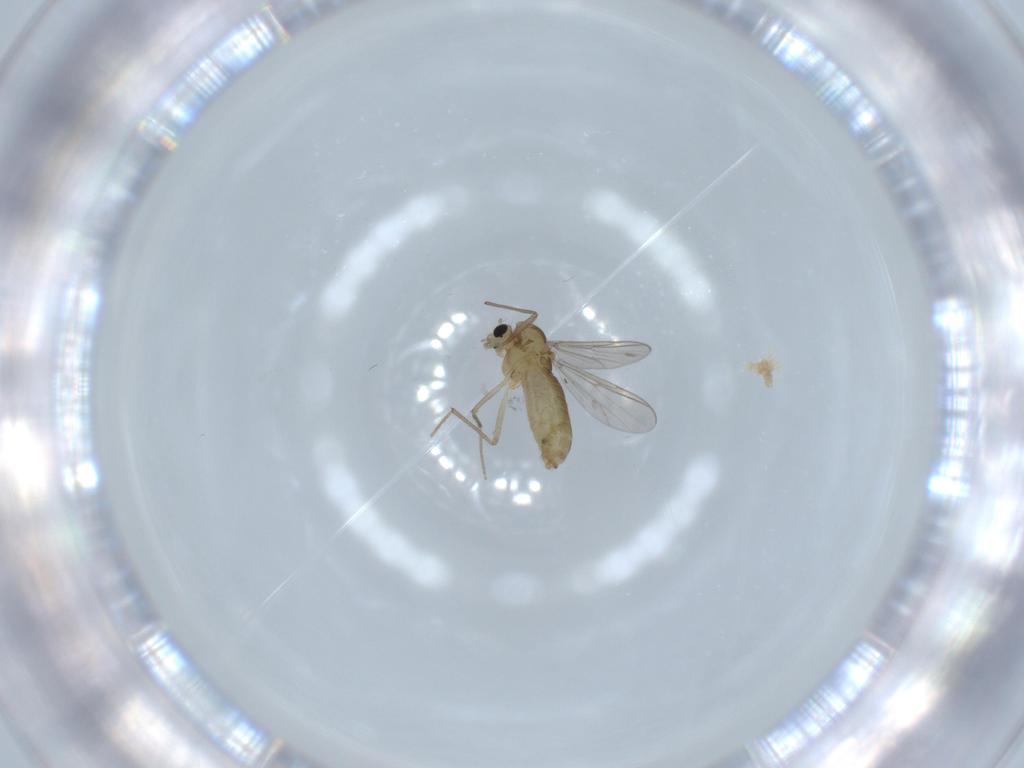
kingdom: Animalia
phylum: Arthropoda
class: Insecta
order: Diptera
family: Chironomidae
